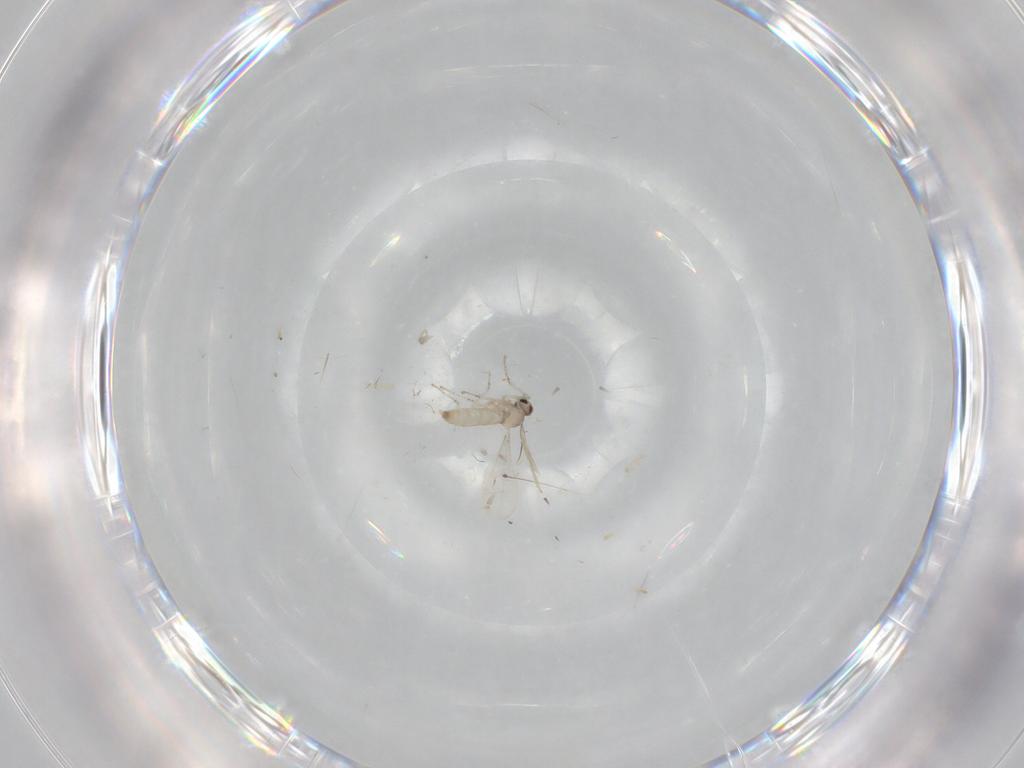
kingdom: Animalia
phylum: Arthropoda
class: Insecta
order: Diptera
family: Cecidomyiidae
